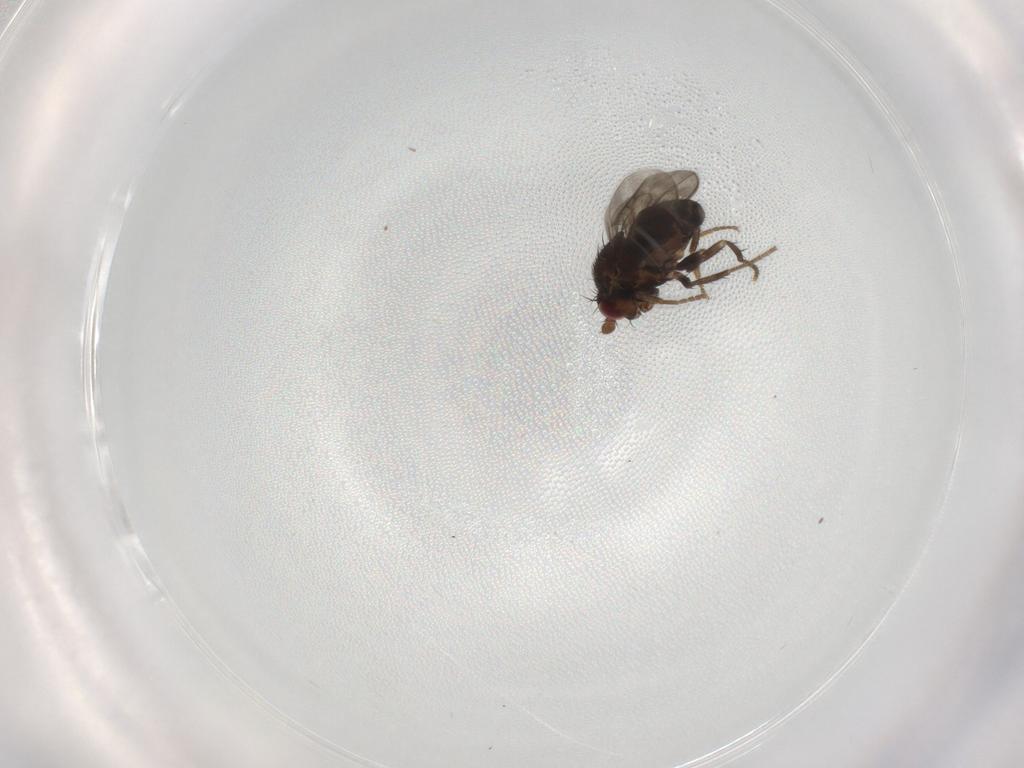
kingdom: Animalia
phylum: Arthropoda
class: Insecta
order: Diptera
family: Sphaeroceridae
